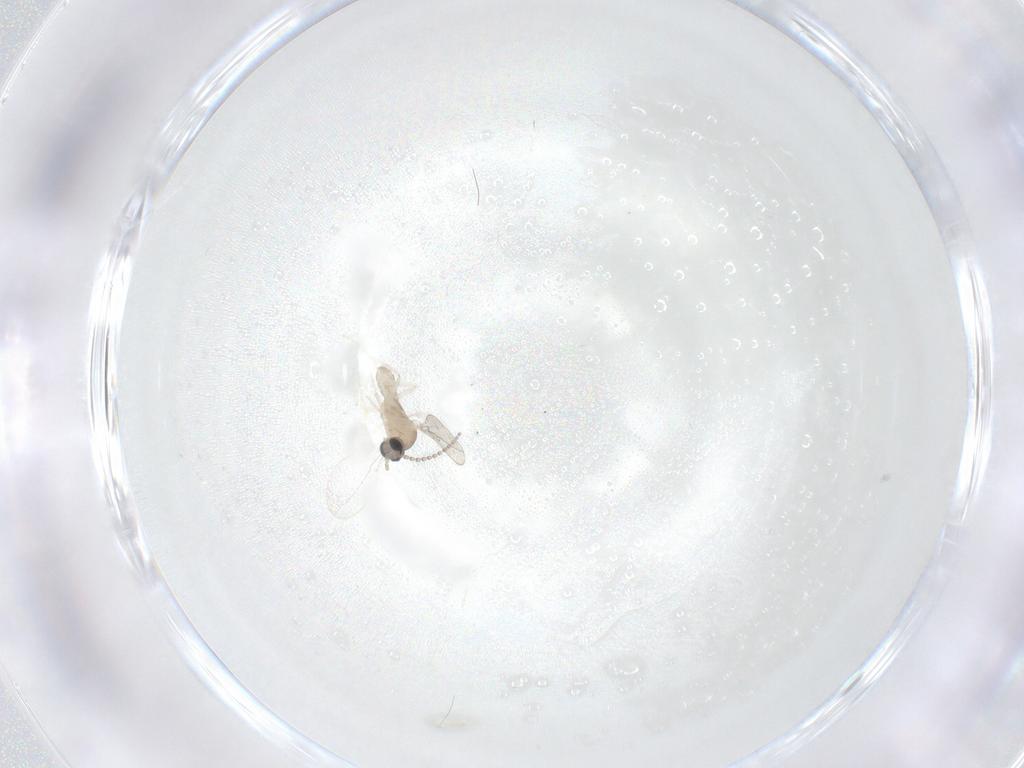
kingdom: Animalia
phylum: Arthropoda
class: Insecta
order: Diptera
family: Cecidomyiidae
